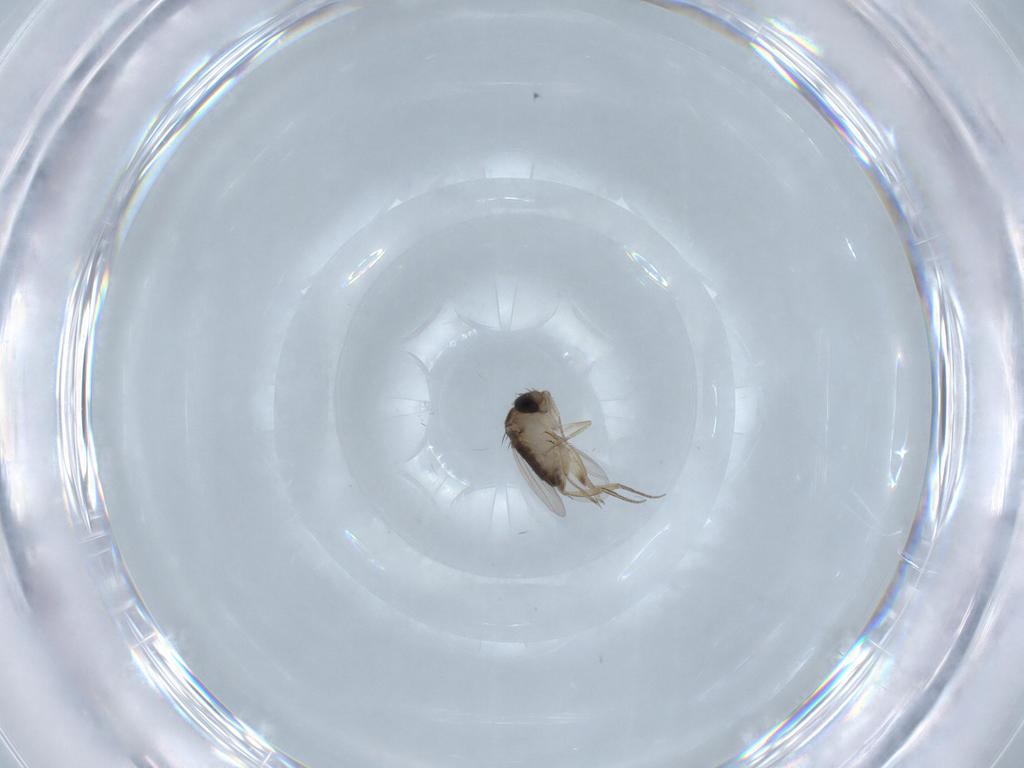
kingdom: Animalia
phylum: Arthropoda
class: Insecta
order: Diptera
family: Phoridae
